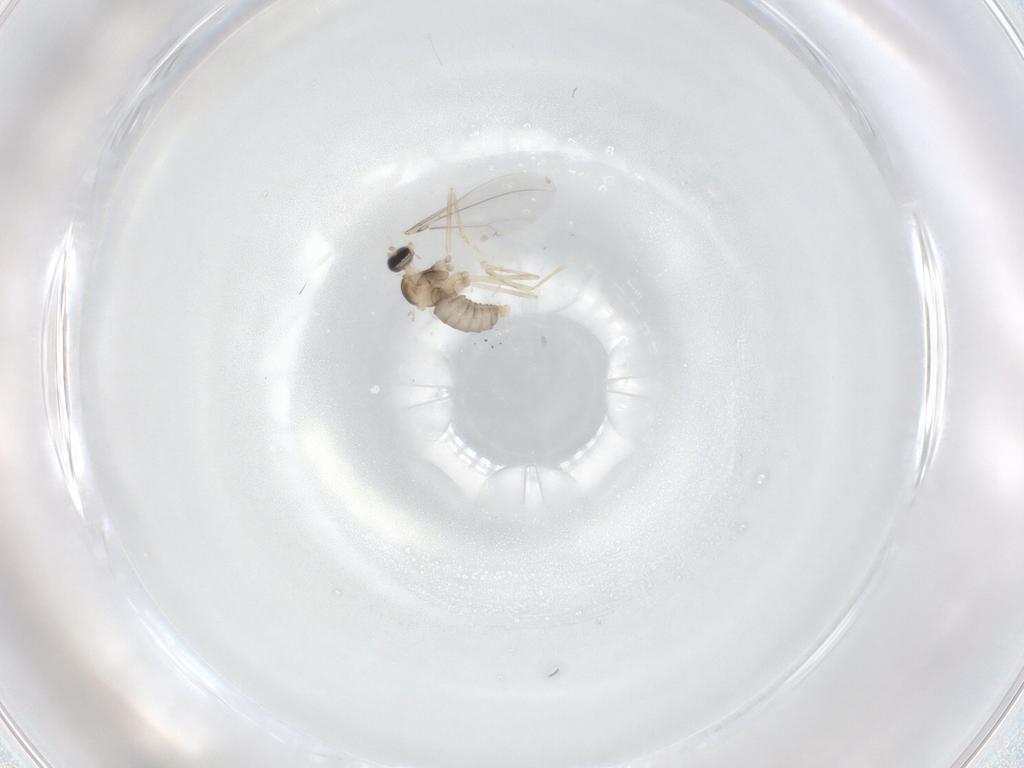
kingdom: Animalia
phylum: Arthropoda
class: Insecta
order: Diptera
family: Cecidomyiidae
